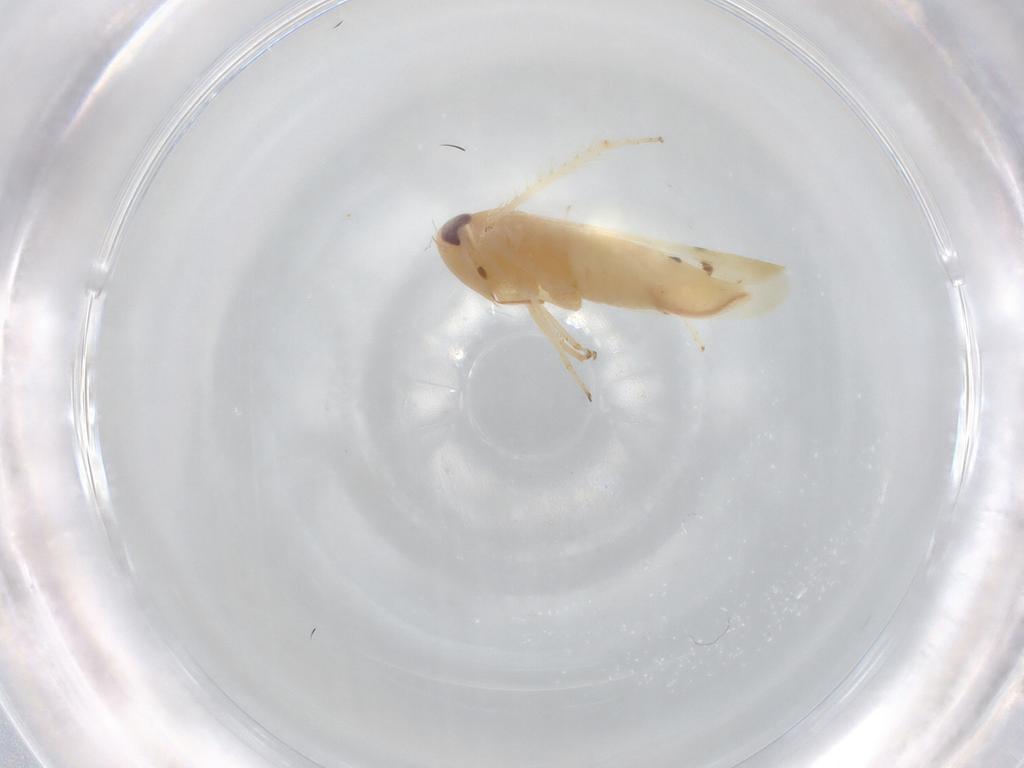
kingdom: Animalia
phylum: Arthropoda
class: Insecta
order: Hemiptera
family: Cicadellidae
